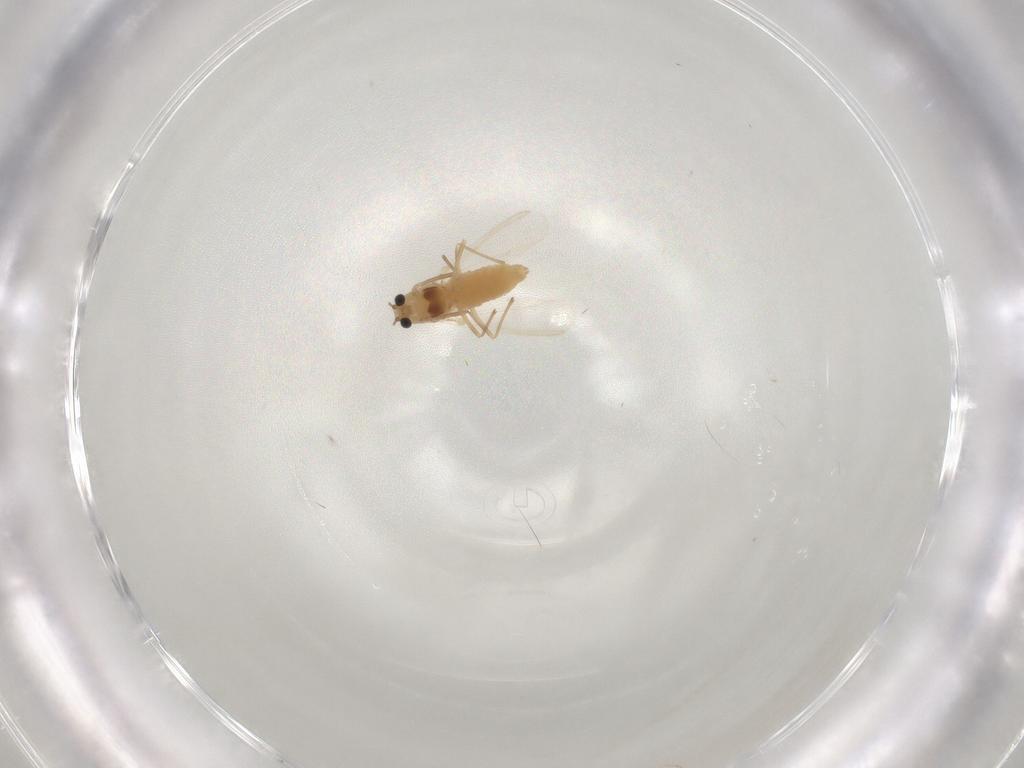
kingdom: Animalia
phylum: Arthropoda
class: Insecta
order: Diptera
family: Chironomidae
